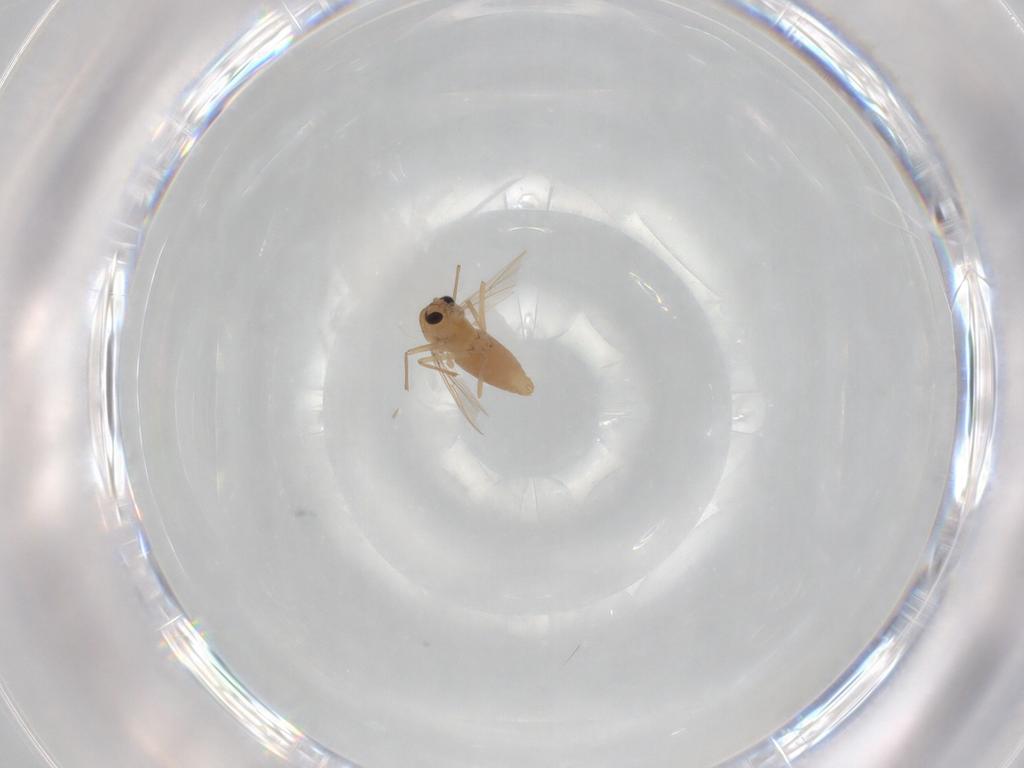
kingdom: Animalia
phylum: Arthropoda
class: Insecta
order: Diptera
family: Chironomidae
